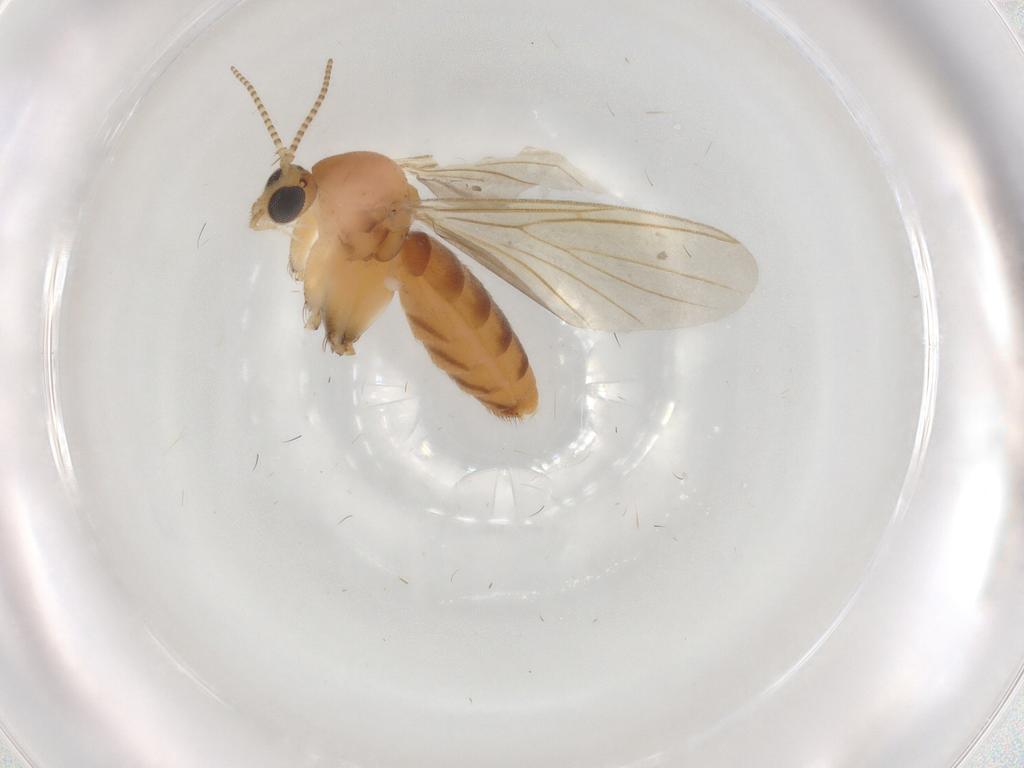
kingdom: Animalia
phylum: Arthropoda
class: Insecta
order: Diptera
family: Mycetophilidae
